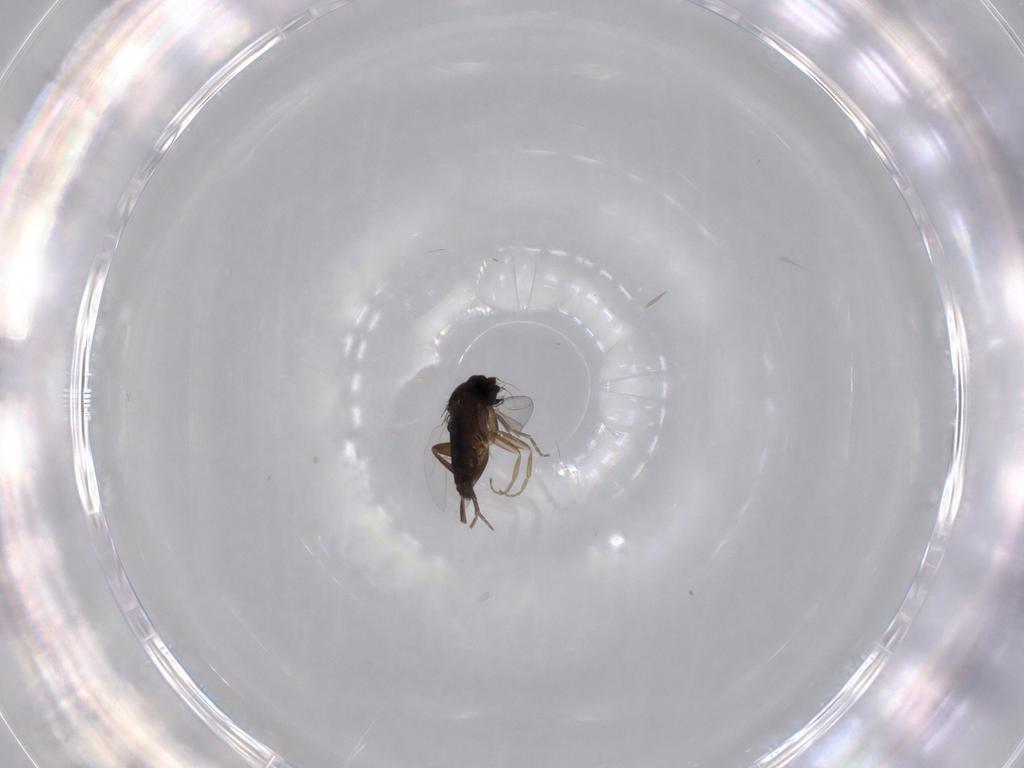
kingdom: Animalia
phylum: Arthropoda
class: Insecta
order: Diptera
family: Phoridae
